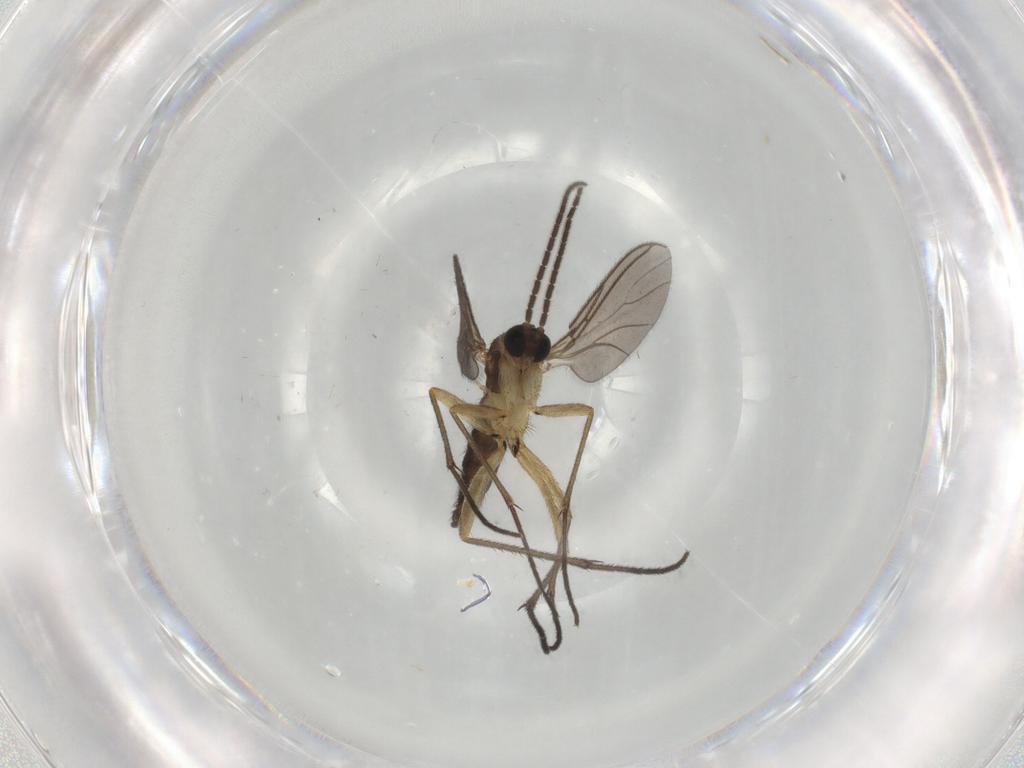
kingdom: Animalia
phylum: Arthropoda
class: Insecta
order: Diptera
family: Sciaridae
